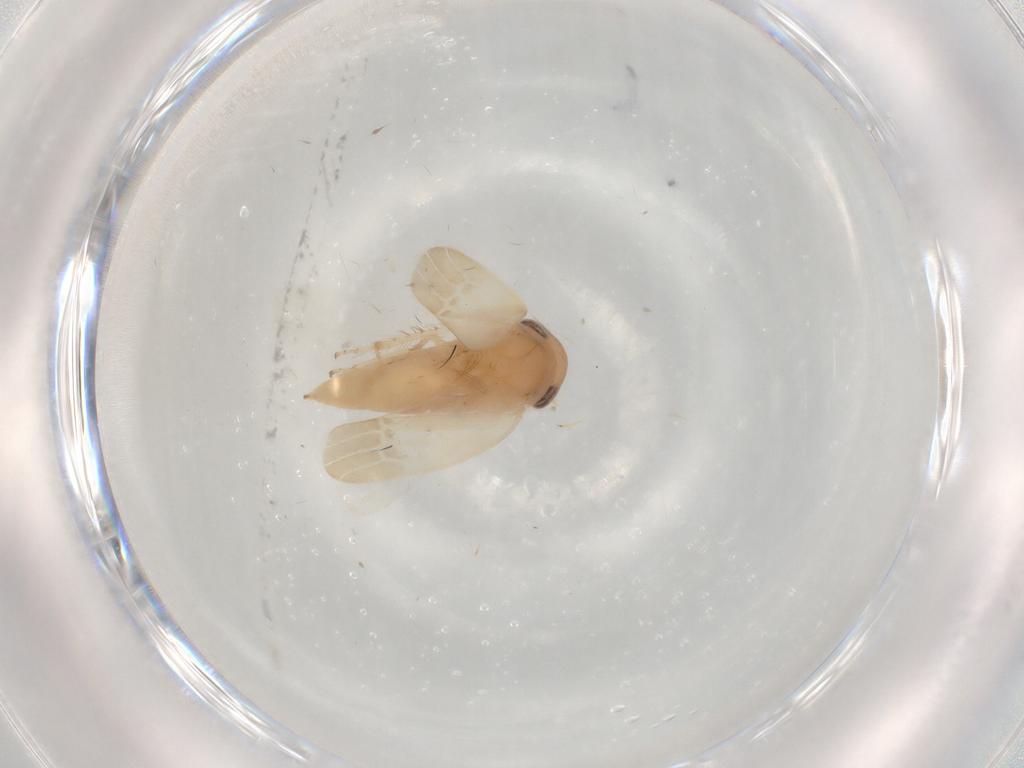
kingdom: Animalia
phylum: Arthropoda
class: Insecta
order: Hemiptera
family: Cicadellidae
